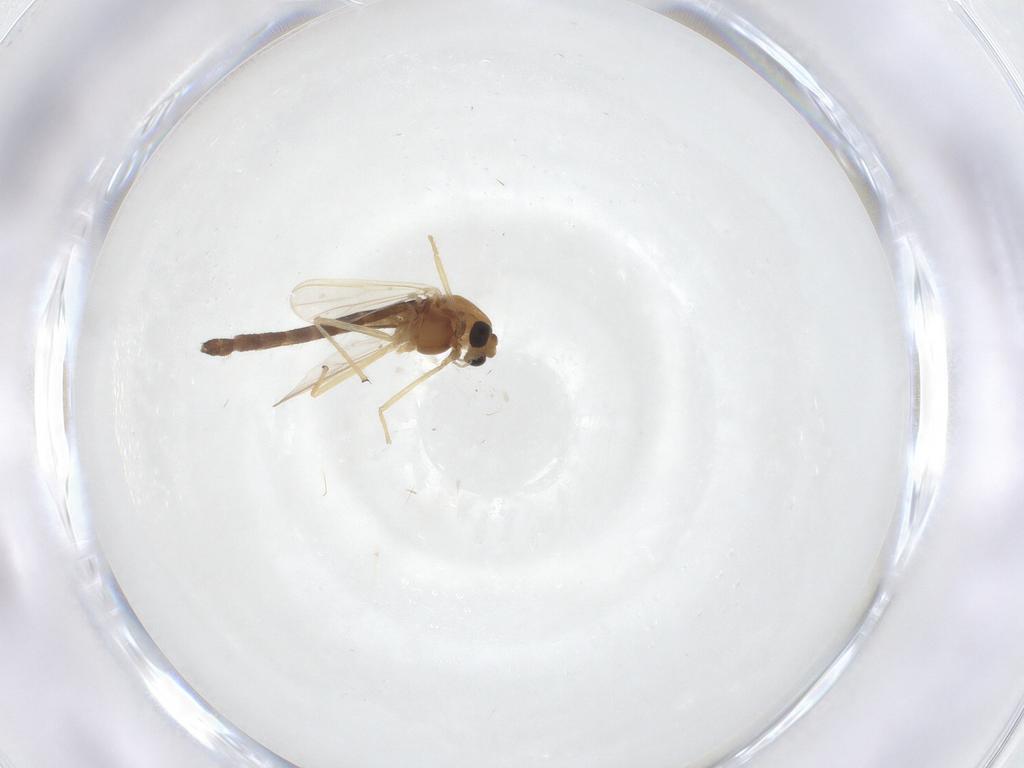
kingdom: Animalia
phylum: Arthropoda
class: Insecta
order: Diptera
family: Chironomidae
